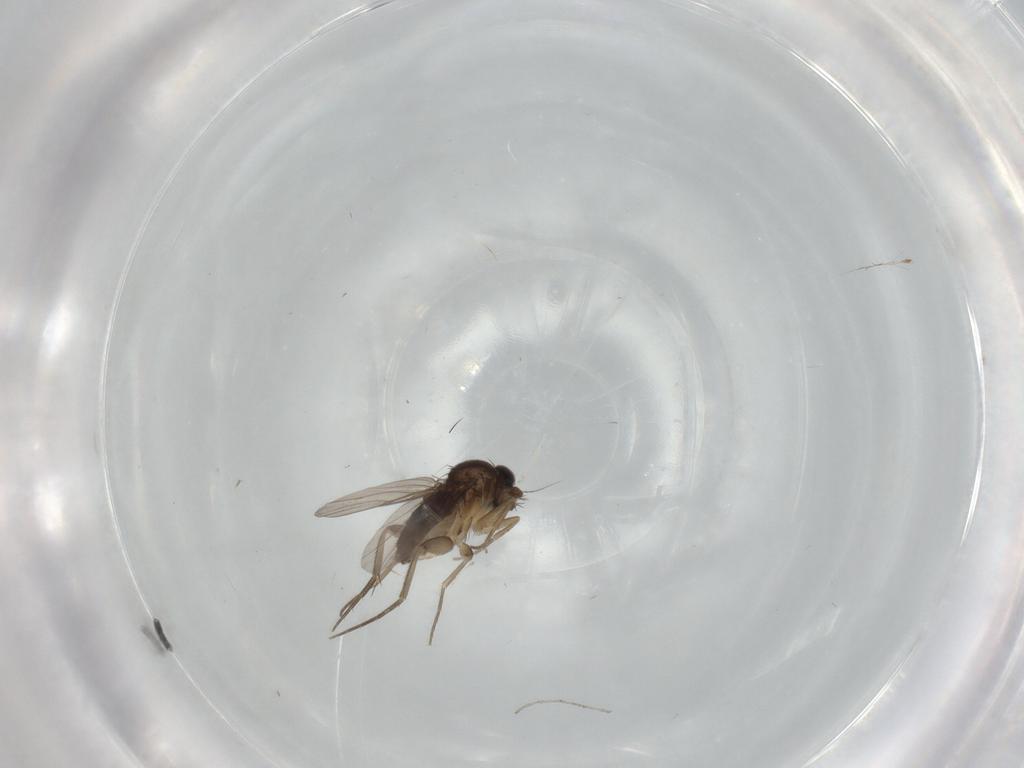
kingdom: Animalia
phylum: Arthropoda
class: Insecta
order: Diptera
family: Phoridae
